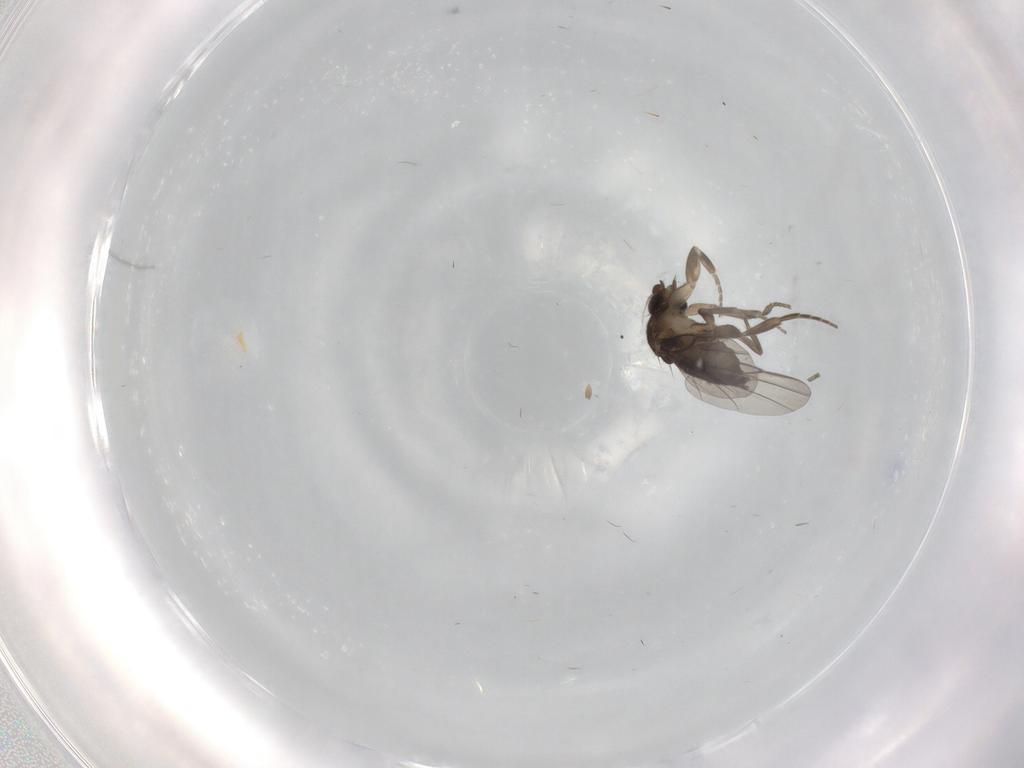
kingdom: Animalia
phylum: Arthropoda
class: Insecta
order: Diptera
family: Phoridae
